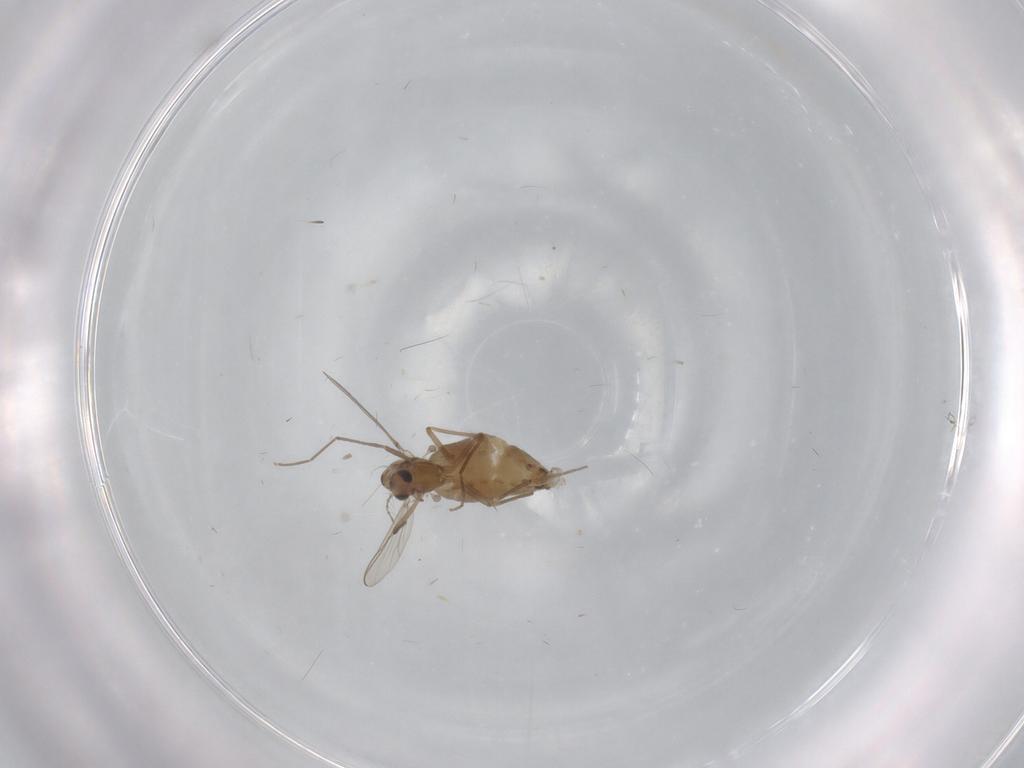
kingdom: Animalia
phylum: Arthropoda
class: Insecta
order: Diptera
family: Chironomidae
